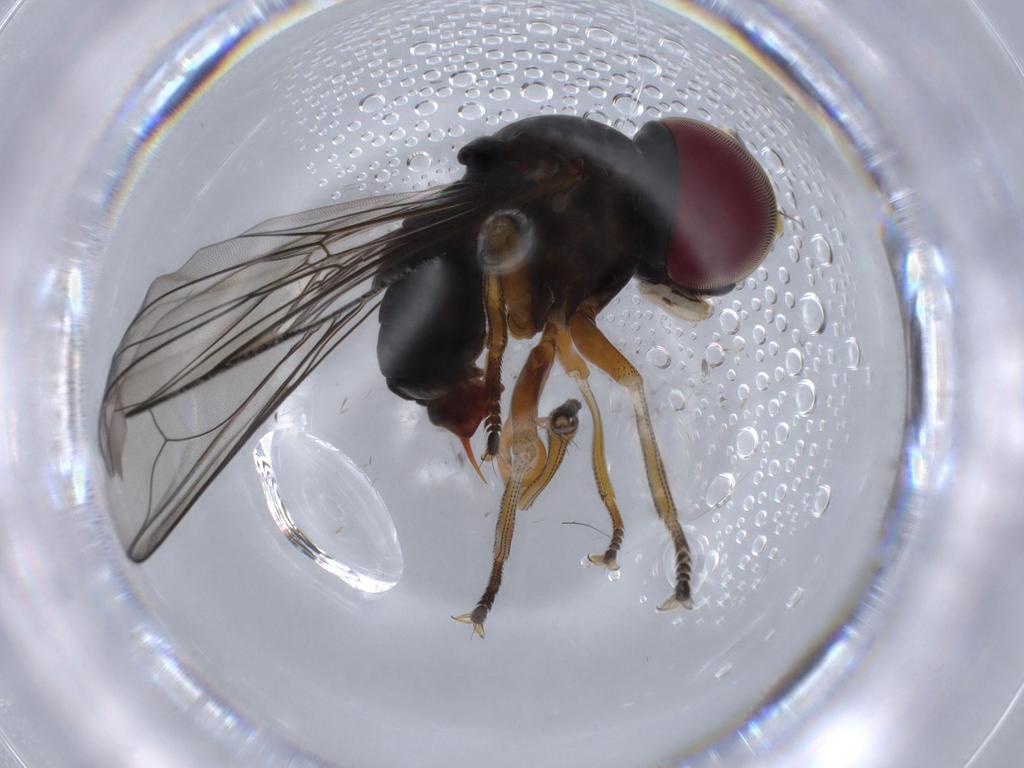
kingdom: Animalia
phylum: Arthropoda
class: Insecta
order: Diptera
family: Pipunculidae
